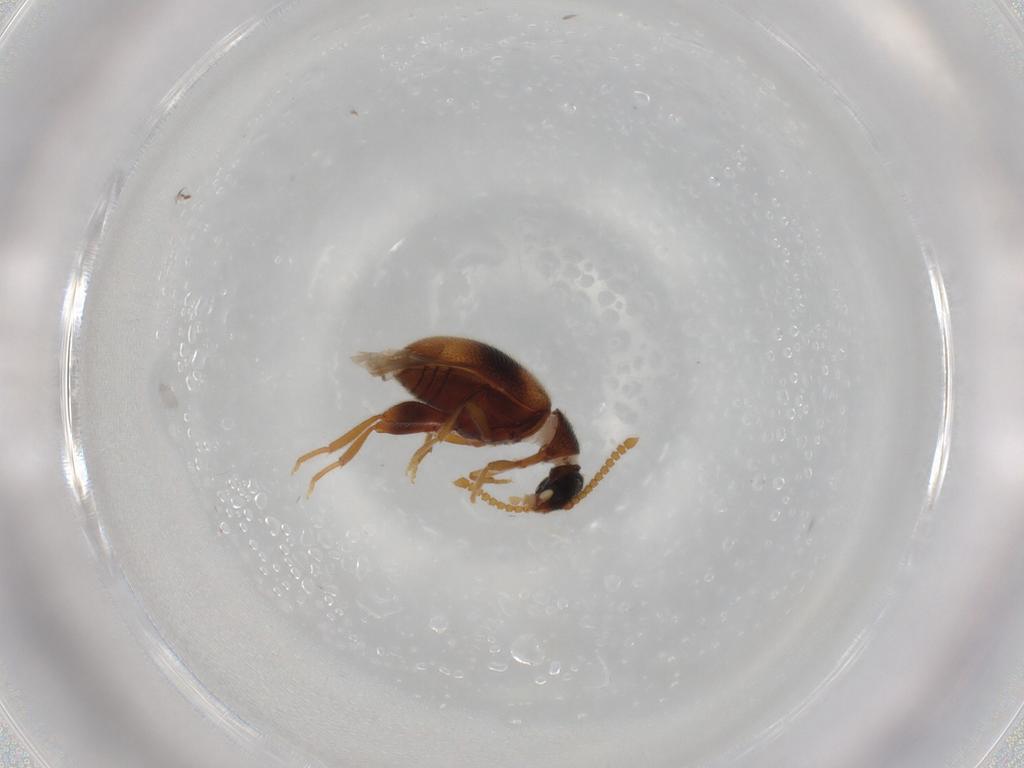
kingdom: Animalia
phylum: Arthropoda
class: Insecta
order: Coleoptera
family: Aderidae
